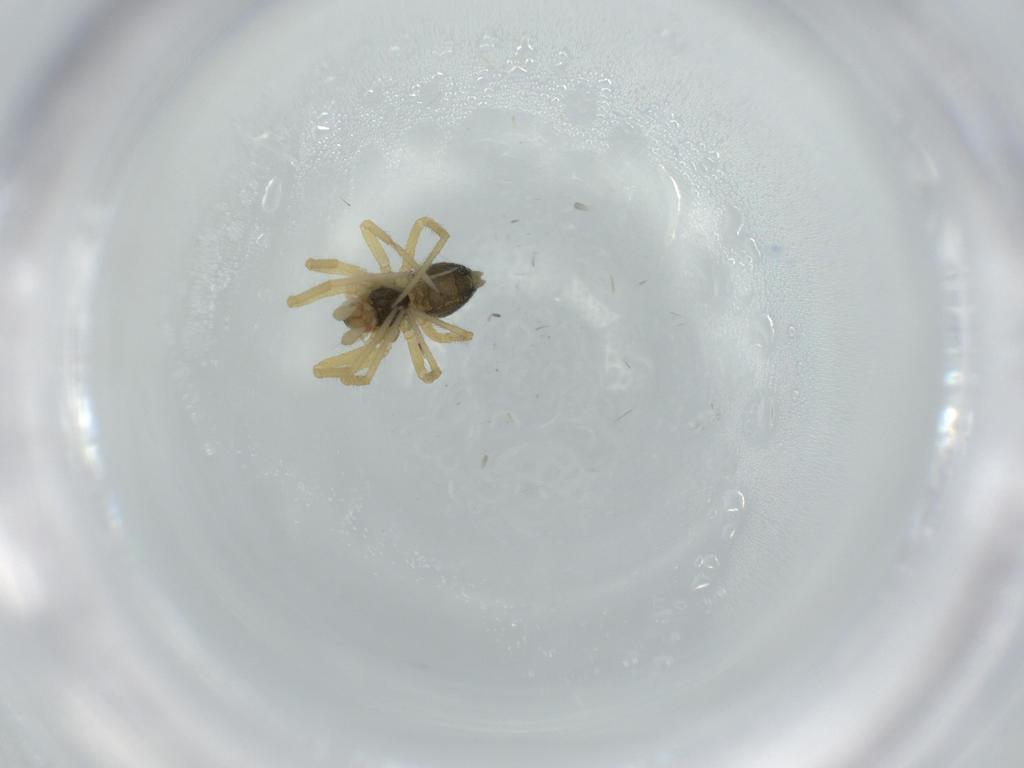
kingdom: Animalia
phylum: Arthropoda
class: Arachnida
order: Araneae
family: Linyphiidae
